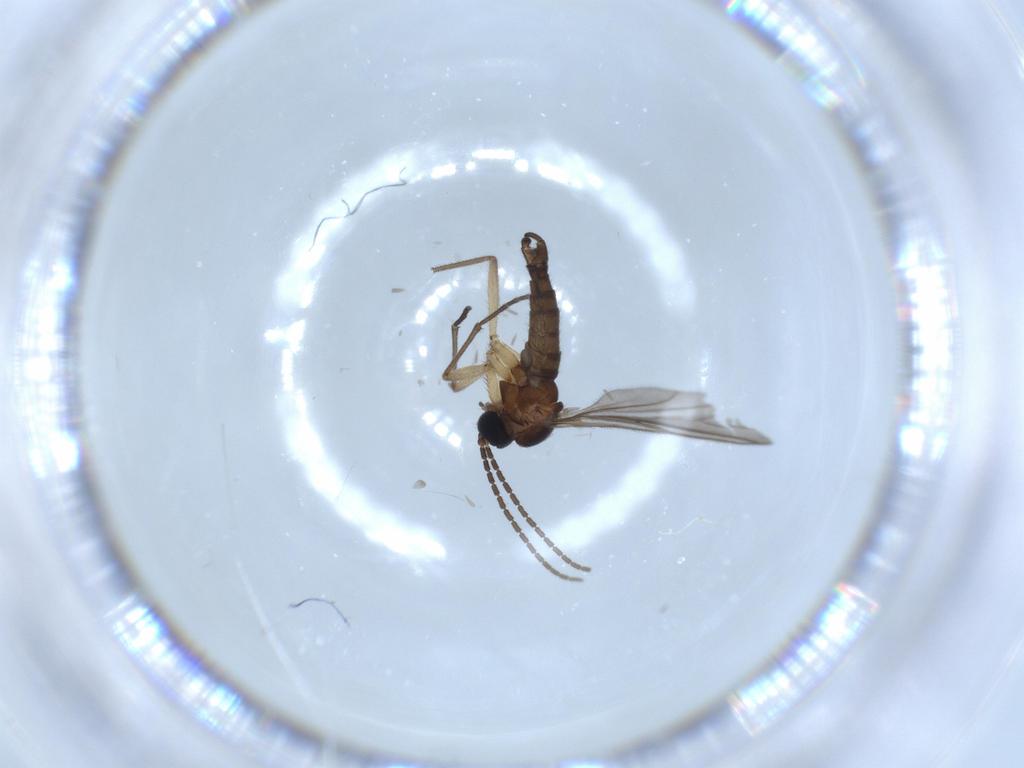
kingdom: Animalia
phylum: Arthropoda
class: Insecta
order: Diptera
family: Sciaridae
